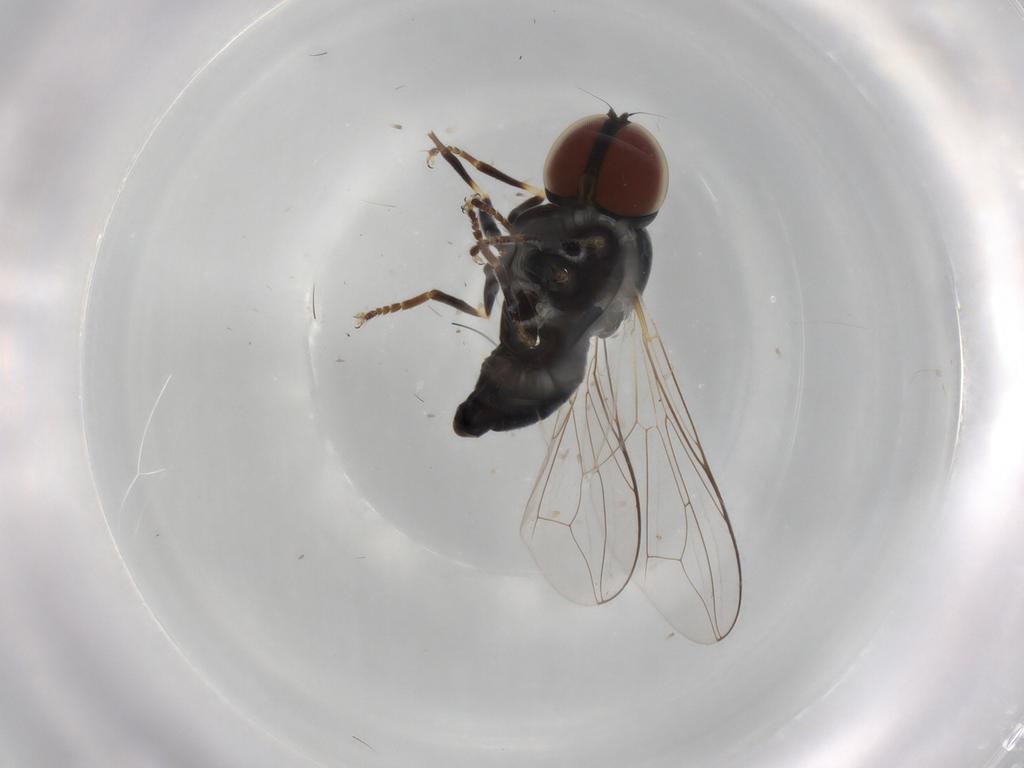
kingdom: Animalia
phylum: Arthropoda
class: Insecta
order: Diptera
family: Pipunculidae
